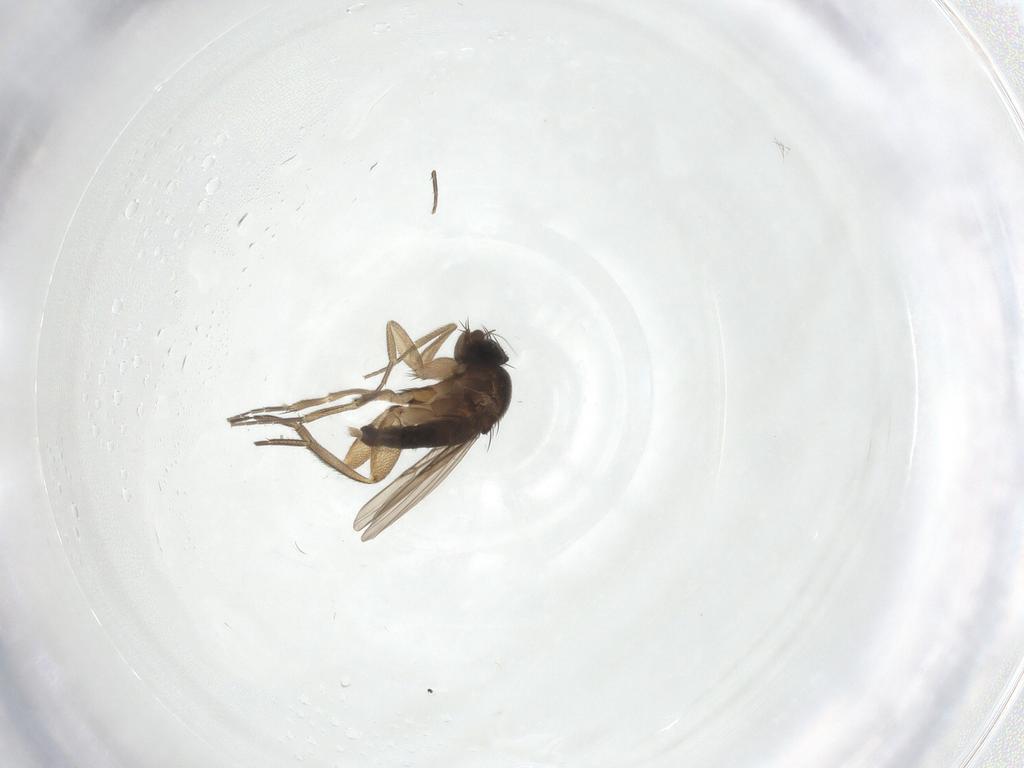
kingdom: Animalia
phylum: Arthropoda
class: Insecta
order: Diptera
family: Phoridae
